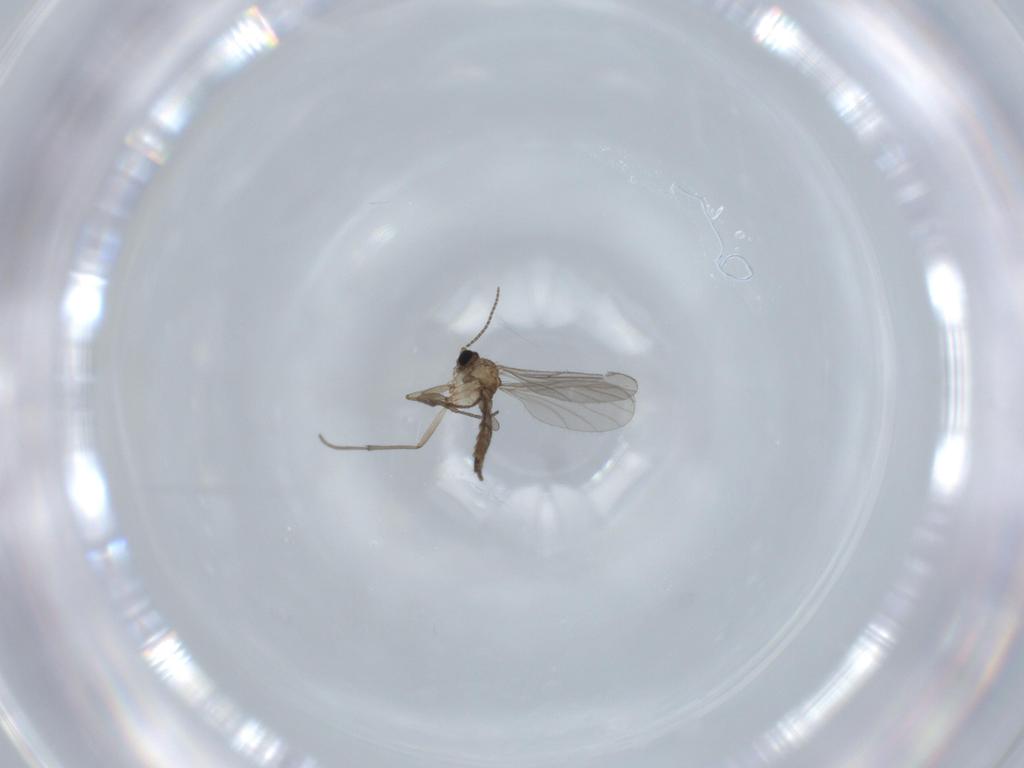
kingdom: Animalia
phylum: Arthropoda
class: Insecta
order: Diptera
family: Sciaridae
